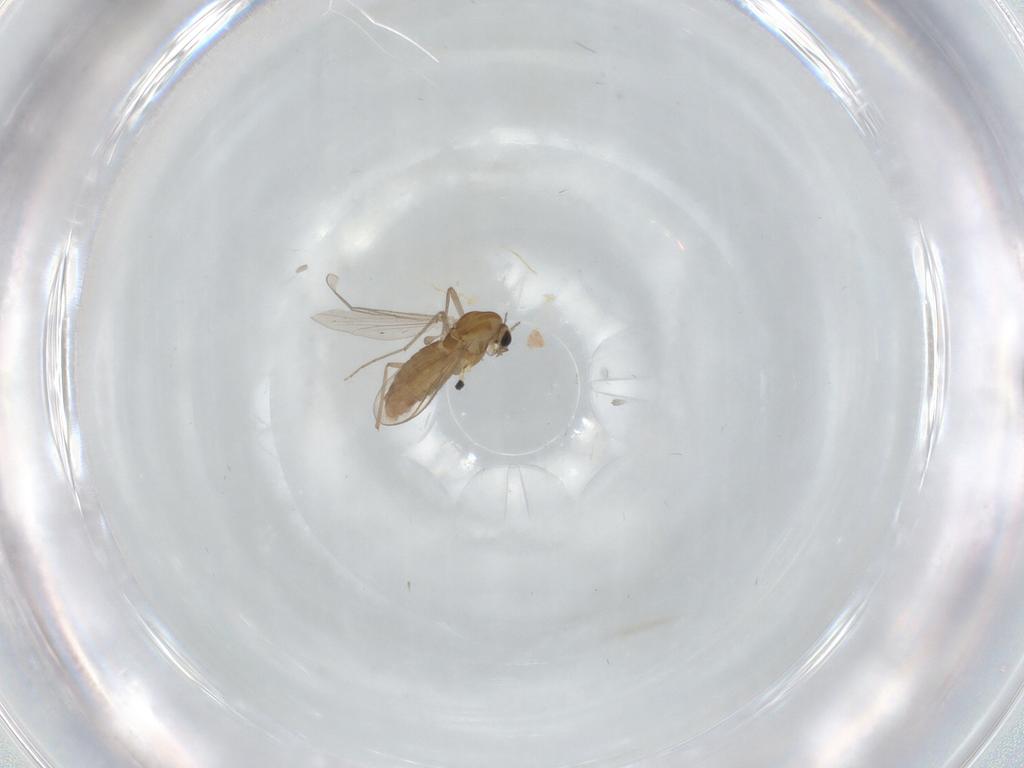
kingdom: Animalia
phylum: Arthropoda
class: Insecta
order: Diptera
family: Chironomidae
